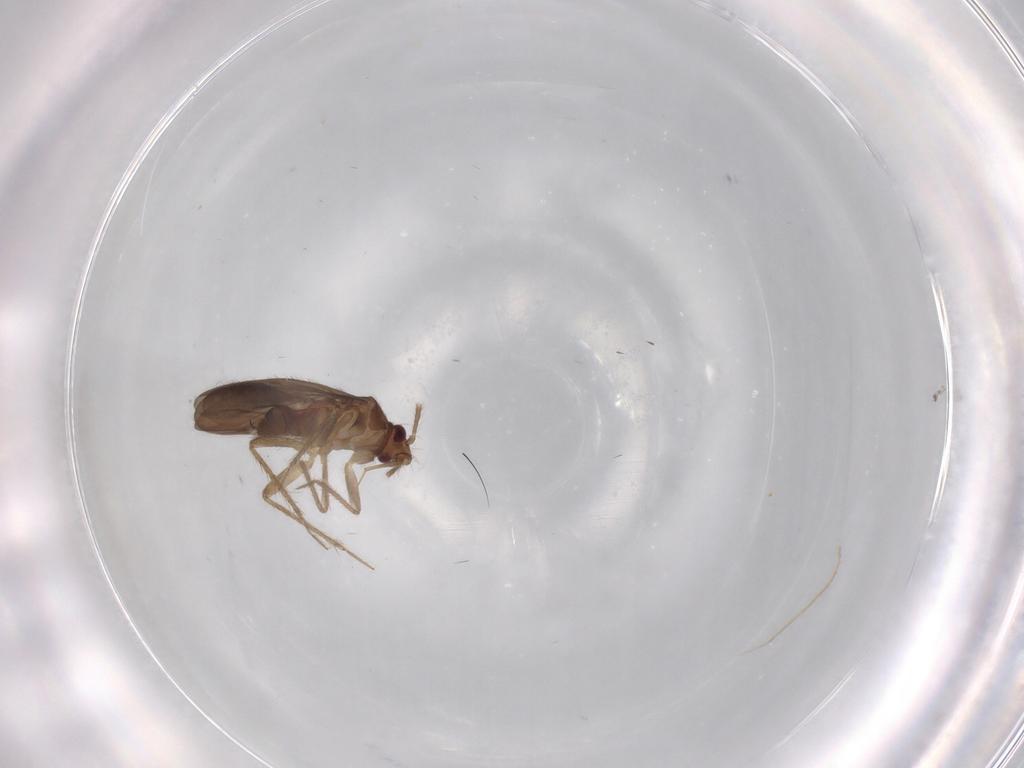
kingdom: Animalia
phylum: Arthropoda
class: Insecta
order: Hemiptera
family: Ceratocombidae
